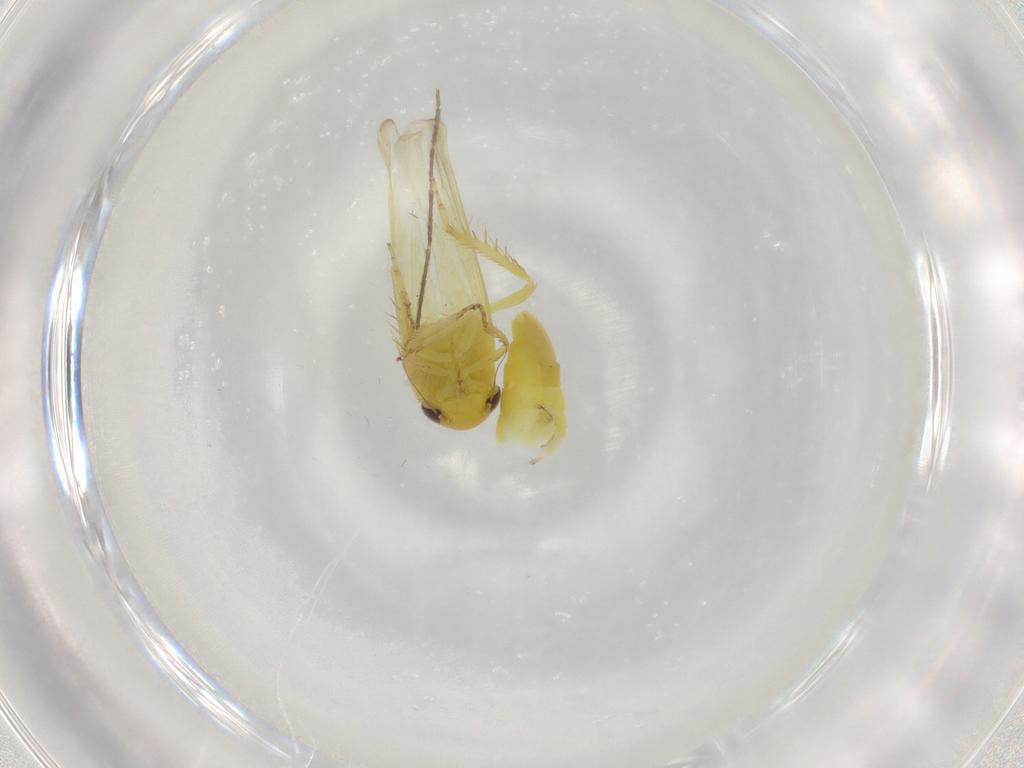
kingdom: Animalia
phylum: Arthropoda
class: Insecta
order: Hemiptera
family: Cicadellidae
